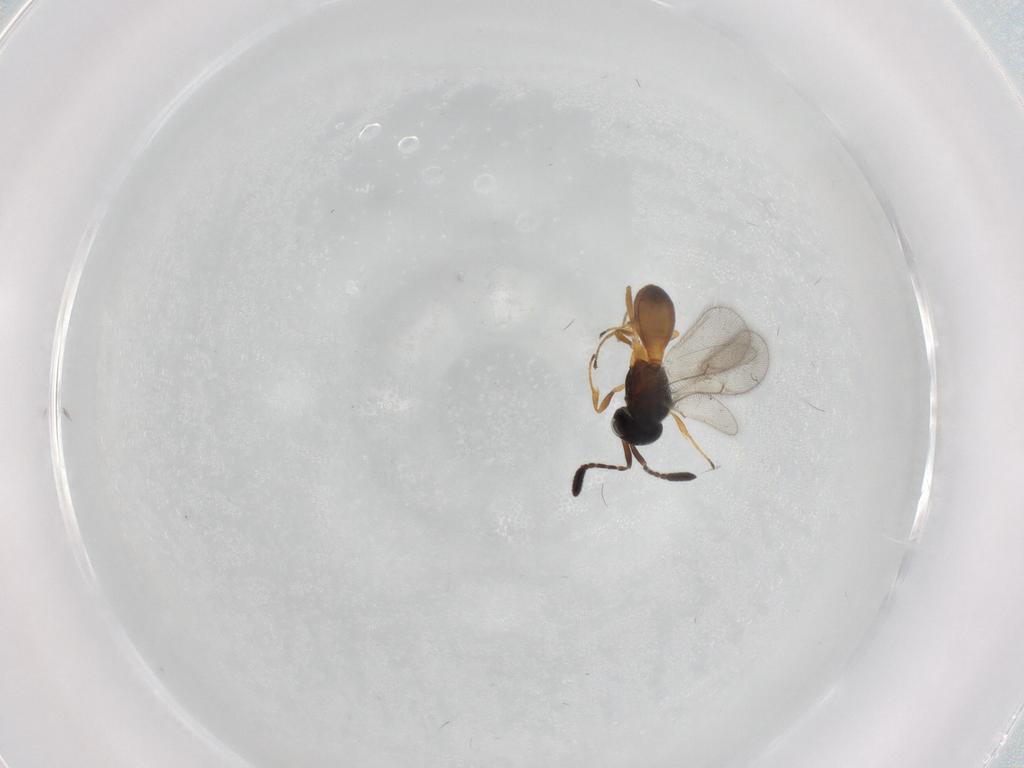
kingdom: Animalia
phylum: Arthropoda
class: Insecta
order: Hymenoptera
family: Scelionidae
